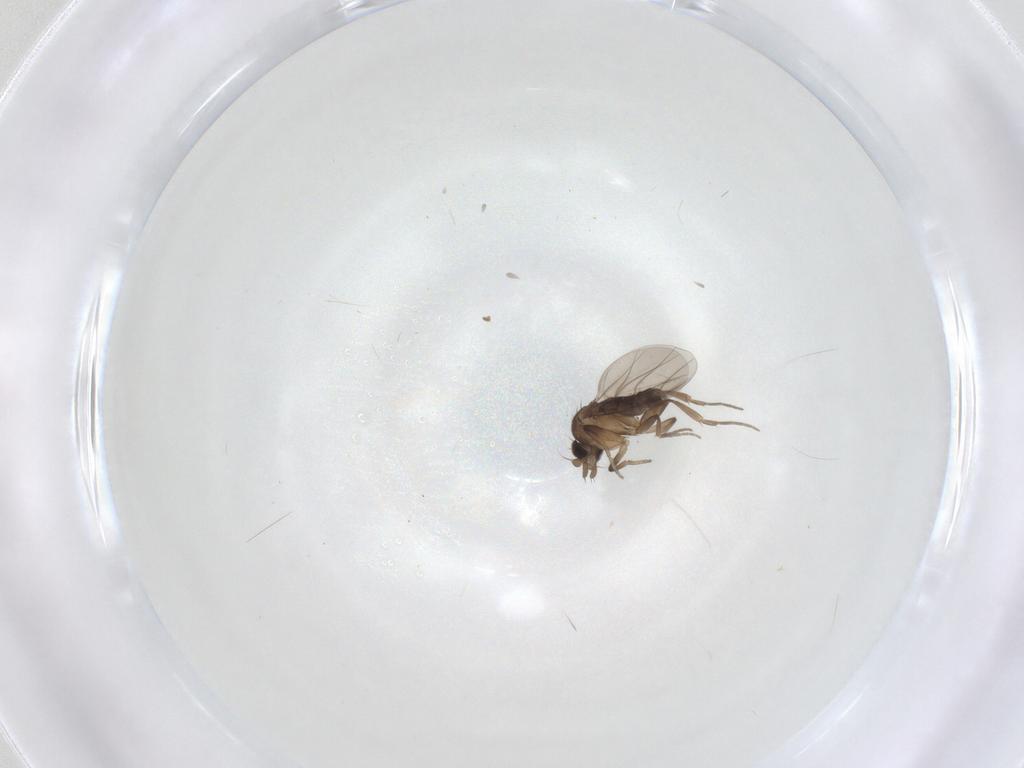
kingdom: Animalia
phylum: Arthropoda
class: Insecta
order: Diptera
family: Phoridae
